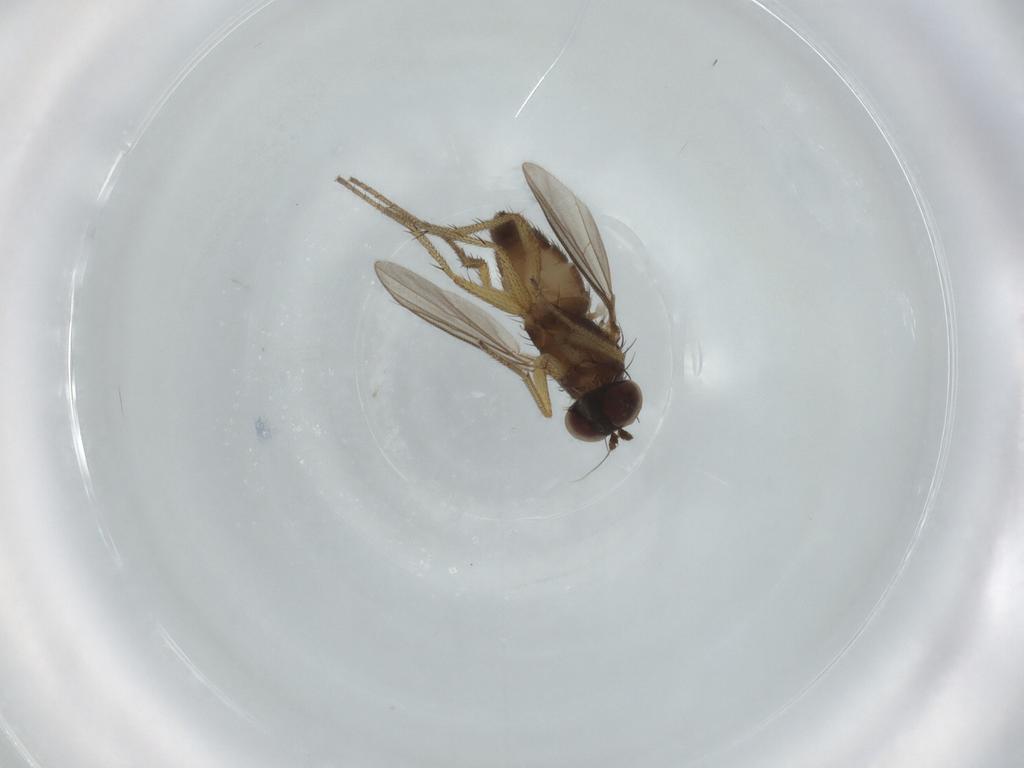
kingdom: Animalia
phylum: Arthropoda
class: Insecta
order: Diptera
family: Dolichopodidae
